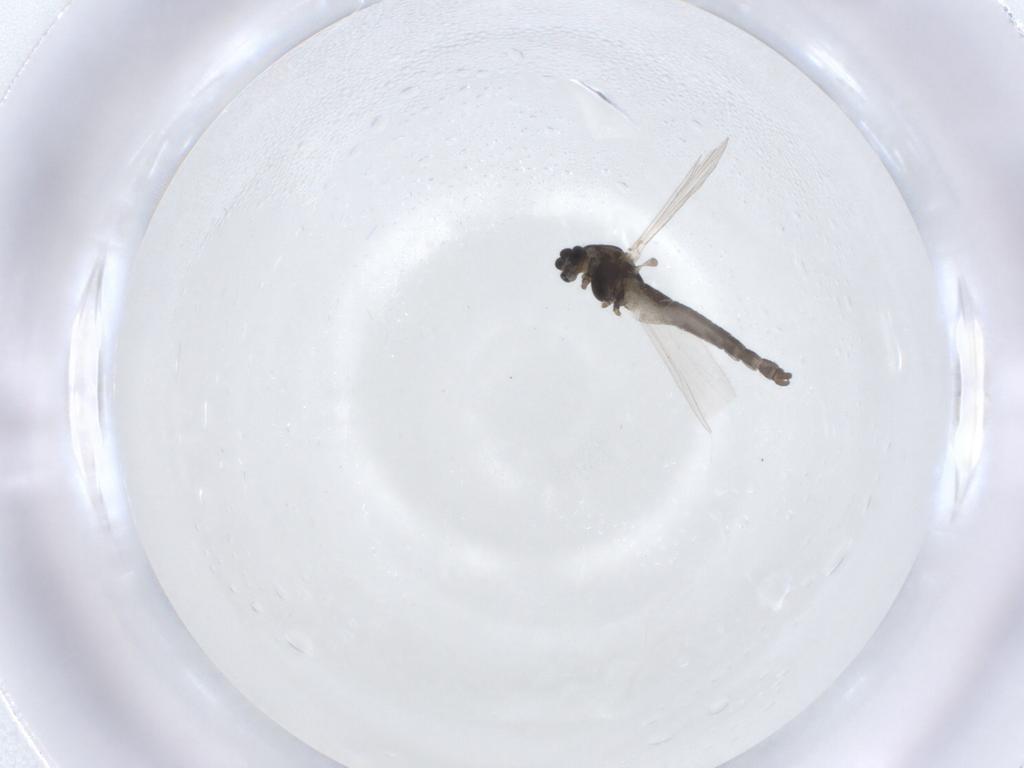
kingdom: Animalia
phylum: Arthropoda
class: Insecta
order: Diptera
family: Chironomidae
